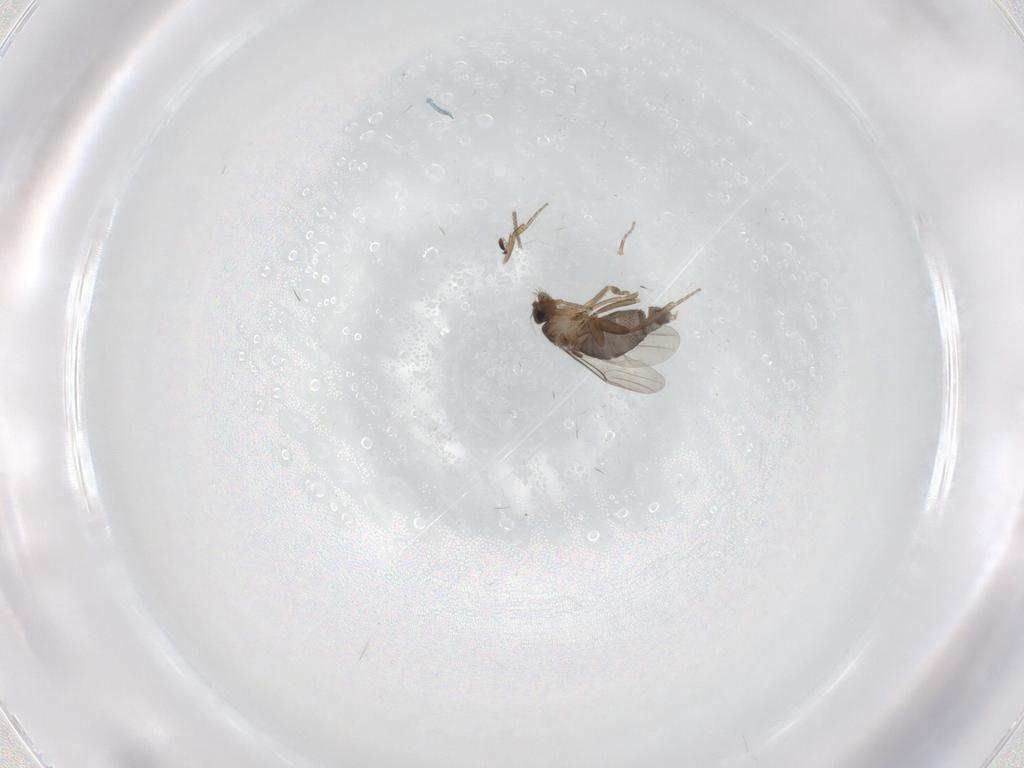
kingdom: Animalia
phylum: Arthropoda
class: Insecta
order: Diptera
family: Phoridae
